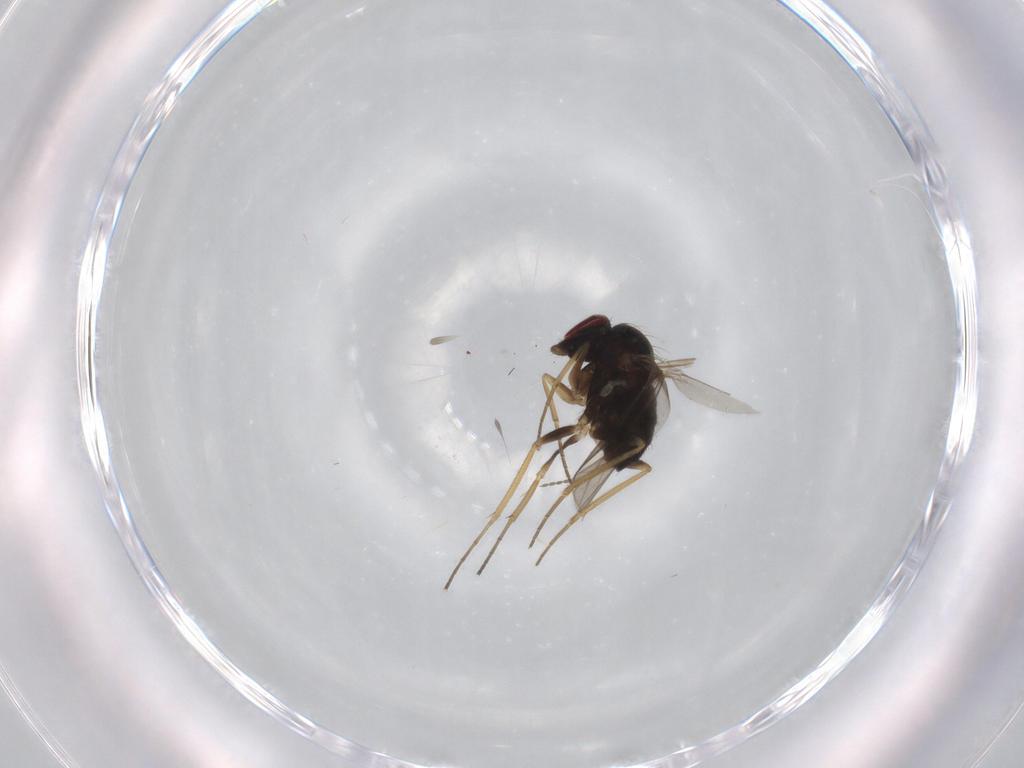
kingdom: Animalia
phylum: Arthropoda
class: Insecta
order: Diptera
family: Cecidomyiidae
